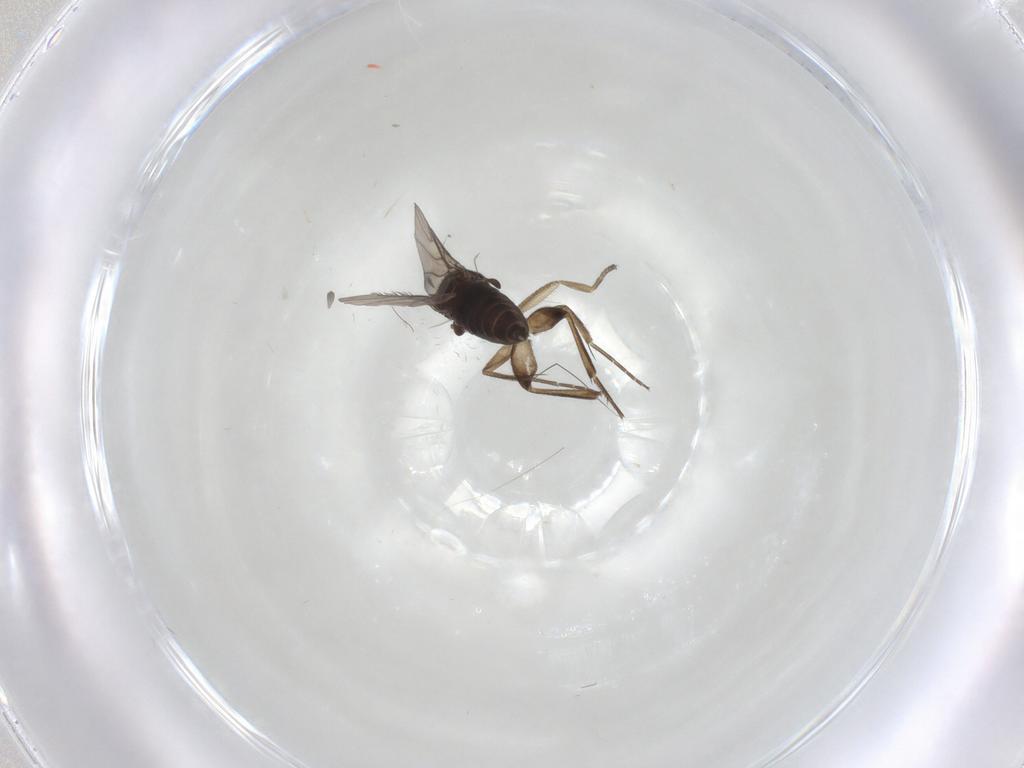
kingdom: Animalia
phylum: Arthropoda
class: Insecta
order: Diptera
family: Phoridae
